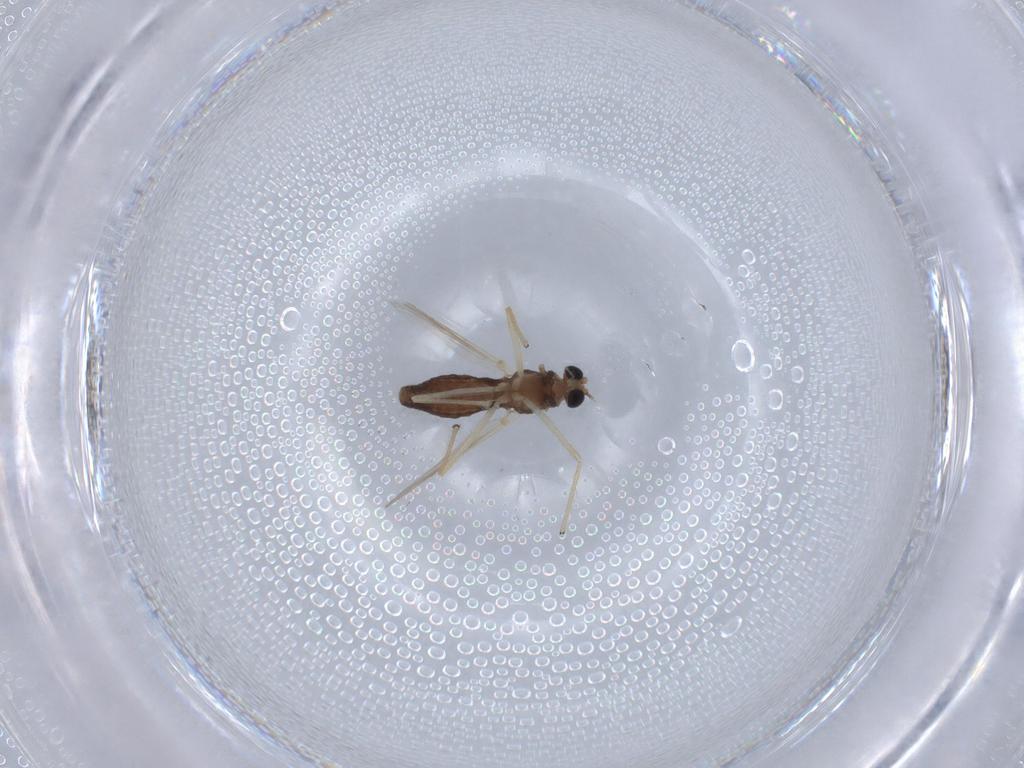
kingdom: Animalia
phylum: Arthropoda
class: Insecta
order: Diptera
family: Chironomidae
